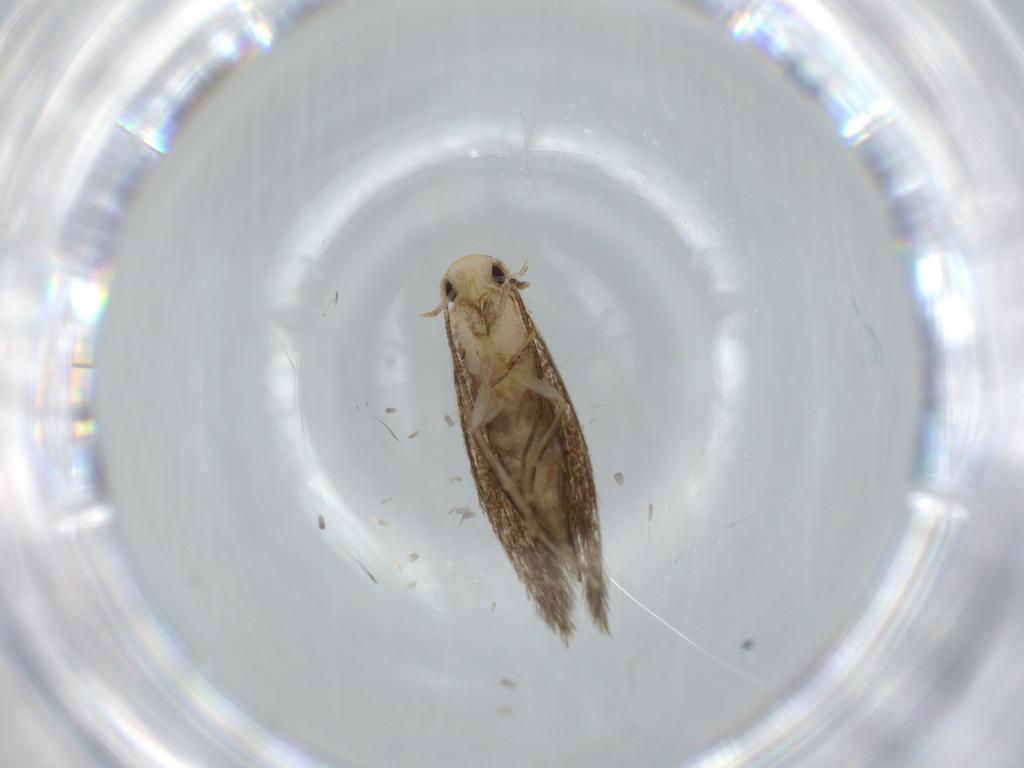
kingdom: Animalia
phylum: Arthropoda
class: Insecta
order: Lepidoptera
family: Tineidae
